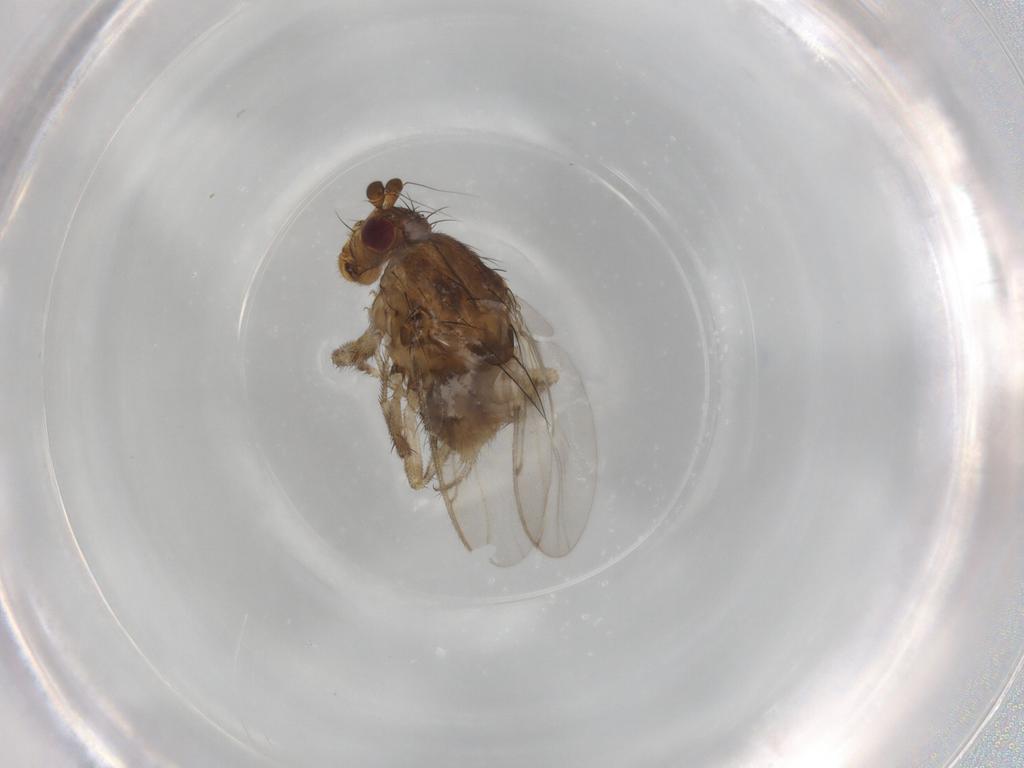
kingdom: Animalia
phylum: Arthropoda
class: Insecta
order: Diptera
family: Sphaeroceridae
